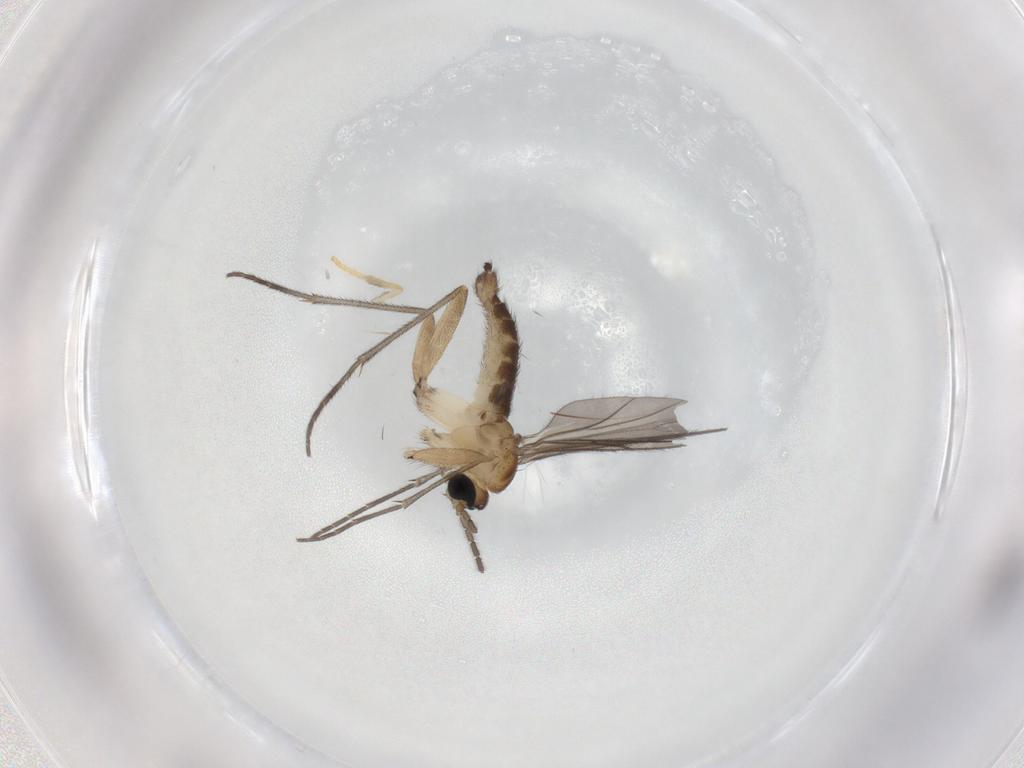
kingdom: Animalia
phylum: Arthropoda
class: Insecta
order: Diptera
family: Sciaridae
